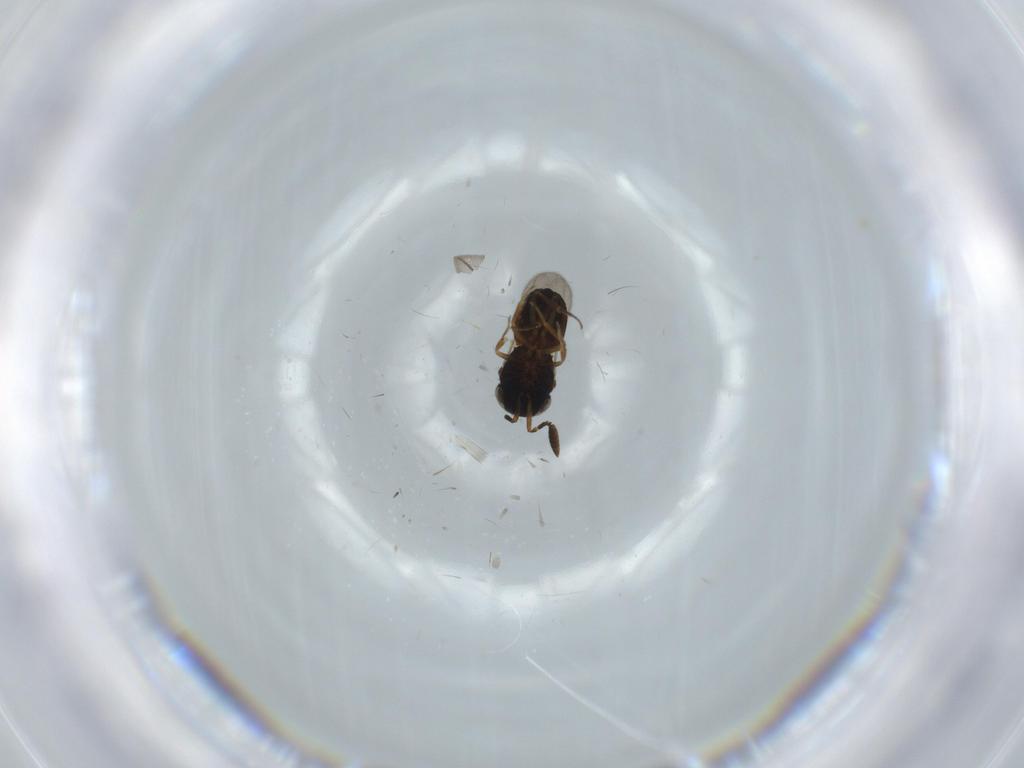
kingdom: Animalia
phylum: Arthropoda
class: Insecta
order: Coleoptera
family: Curculionidae
